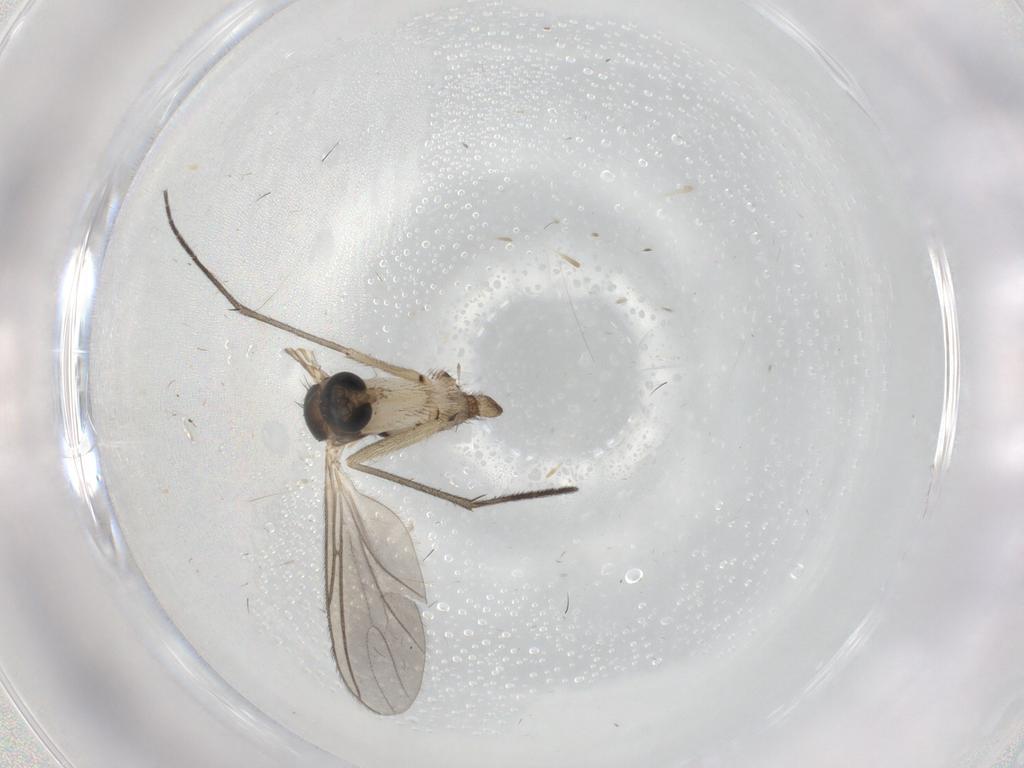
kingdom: Animalia
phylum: Arthropoda
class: Insecta
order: Diptera
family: Sciaridae
